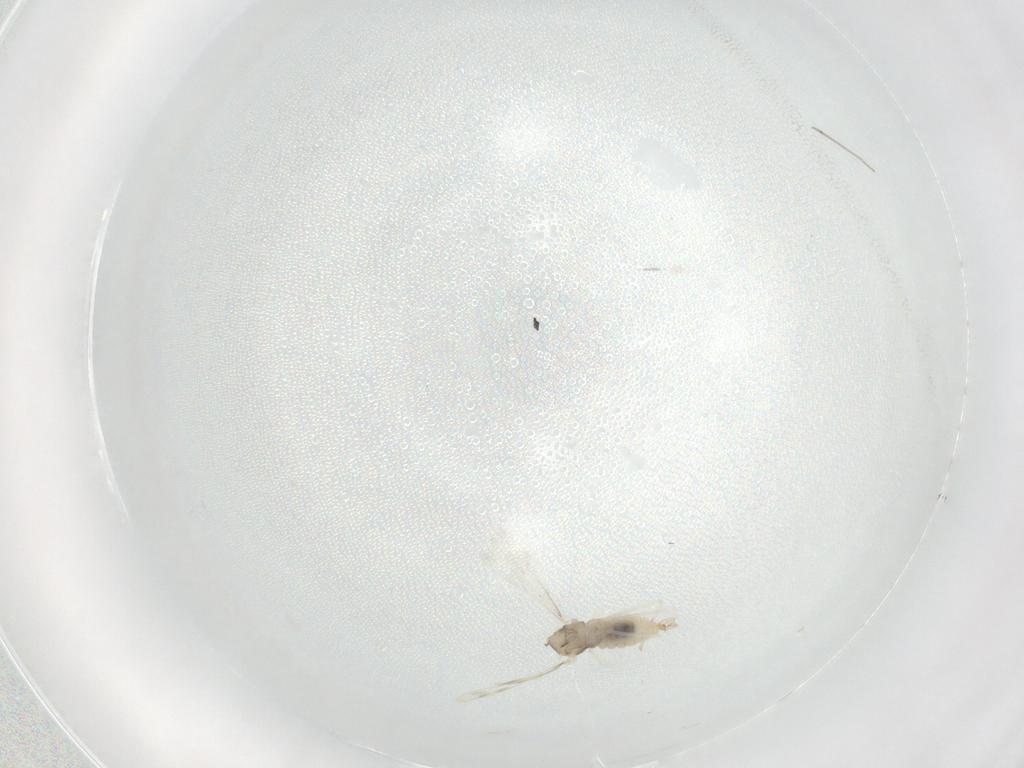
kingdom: Animalia
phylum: Arthropoda
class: Insecta
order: Diptera
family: Cecidomyiidae
